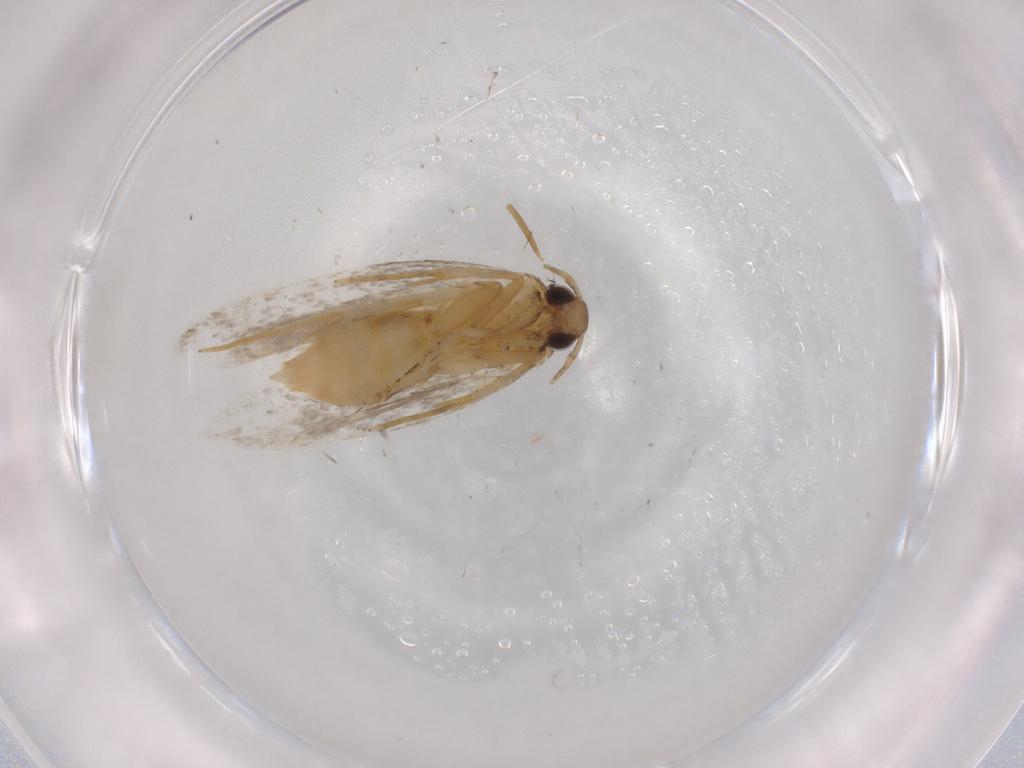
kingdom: Animalia
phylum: Arthropoda
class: Insecta
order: Lepidoptera
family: Autostichidae
